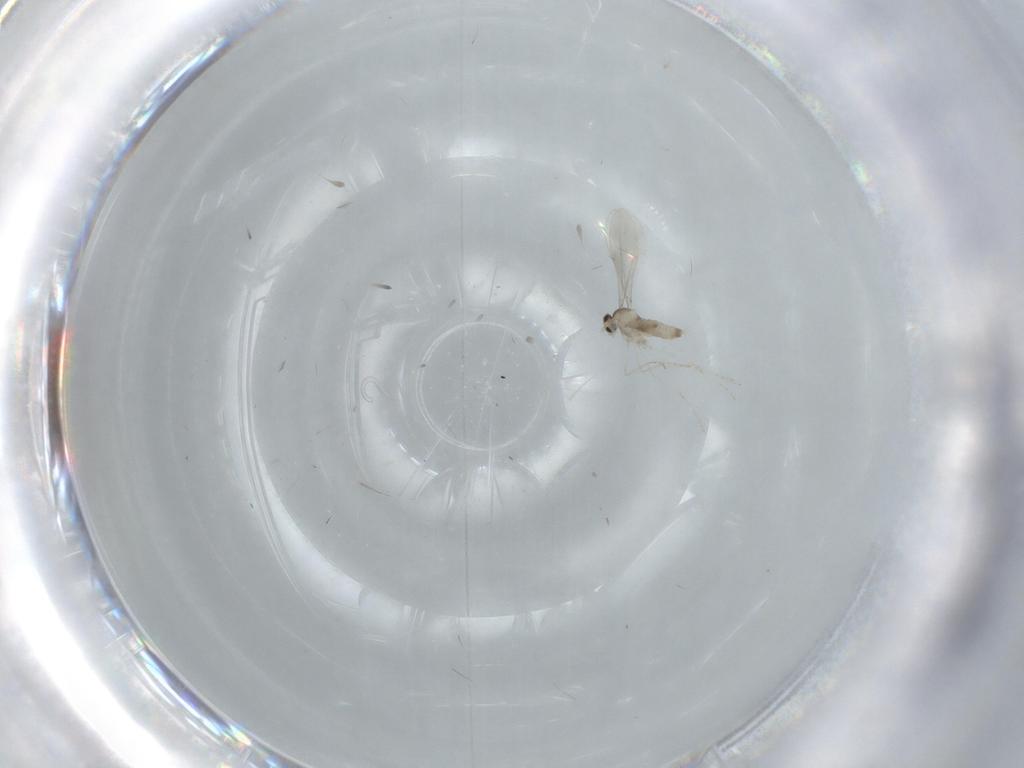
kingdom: Animalia
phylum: Arthropoda
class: Insecta
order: Diptera
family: Cecidomyiidae
